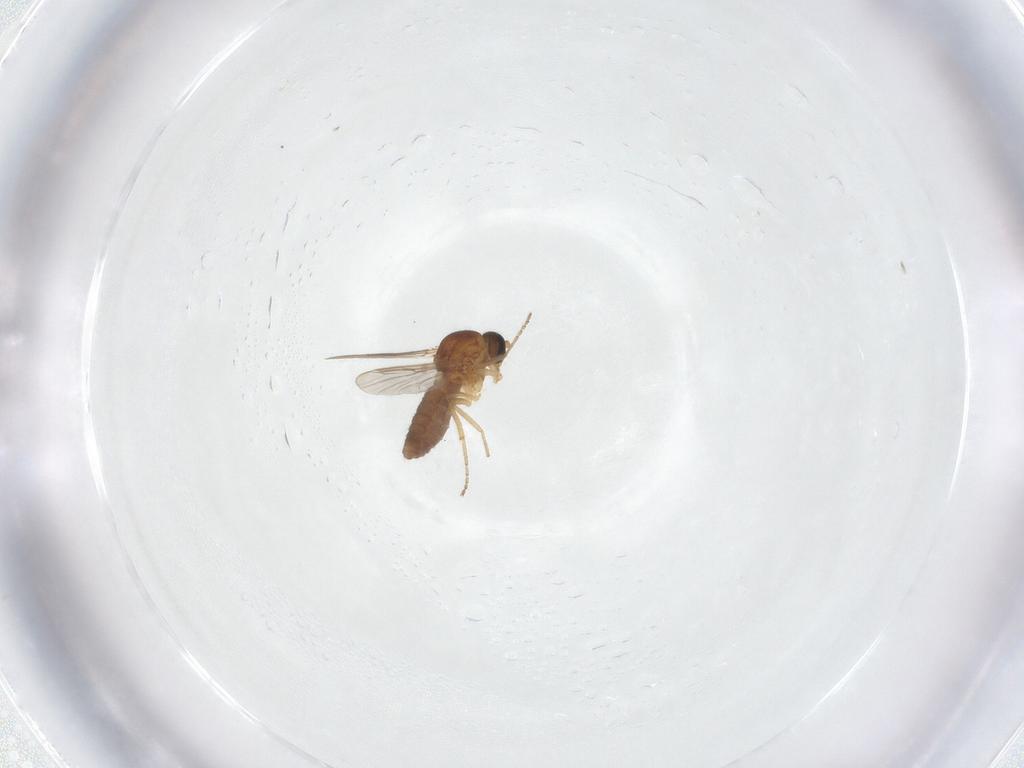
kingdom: Animalia
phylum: Arthropoda
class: Insecta
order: Diptera
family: Ceratopogonidae
